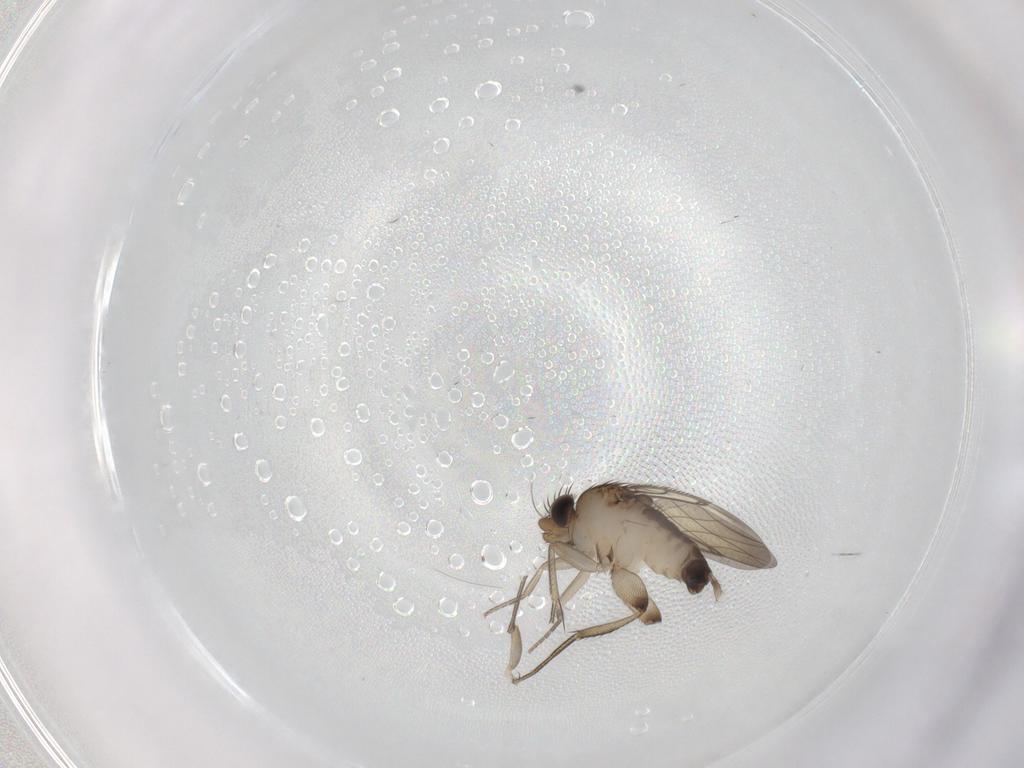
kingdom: Animalia
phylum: Arthropoda
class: Insecta
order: Diptera
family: Phoridae
